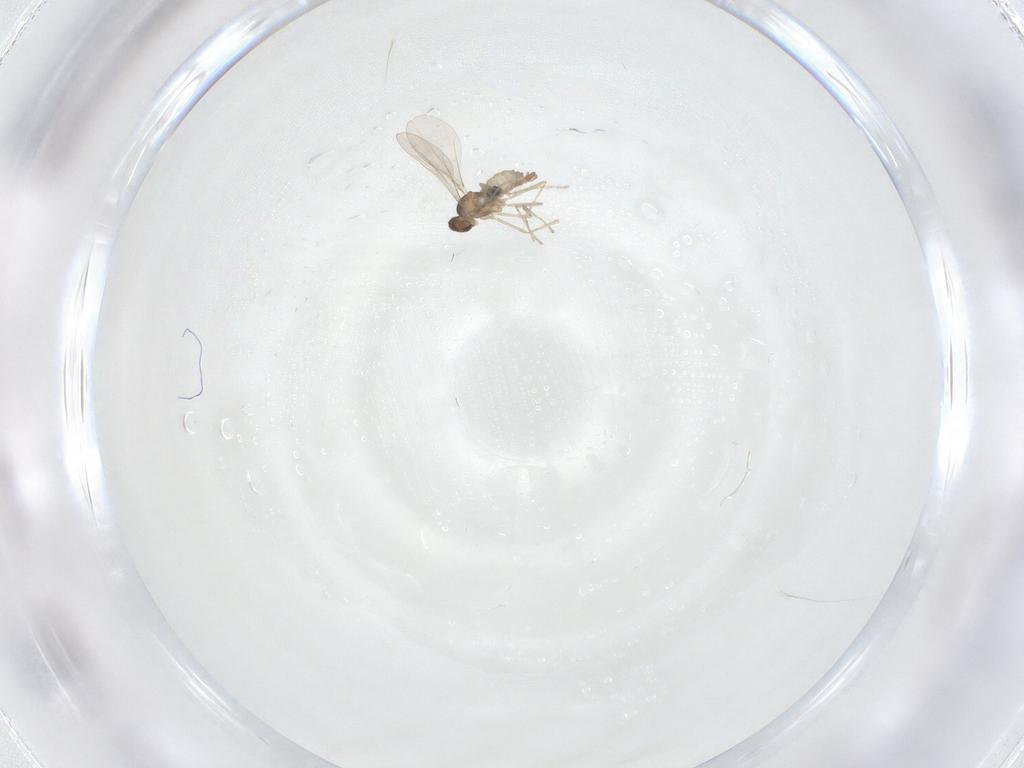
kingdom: Animalia
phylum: Arthropoda
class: Insecta
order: Diptera
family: Cecidomyiidae
